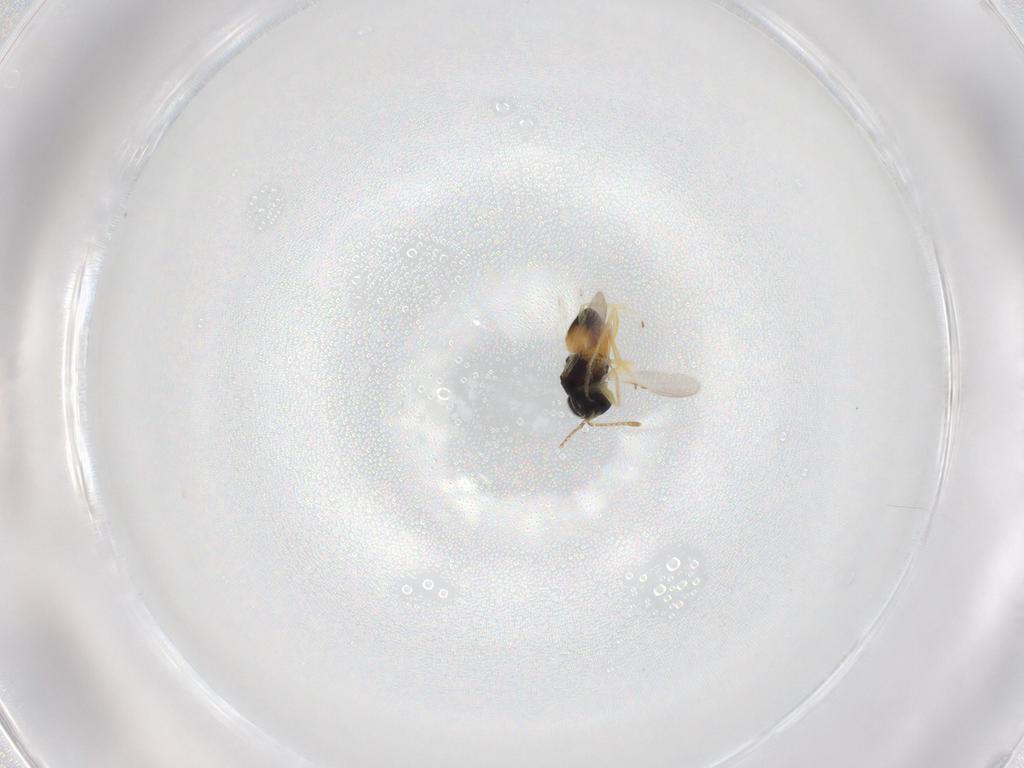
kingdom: Animalia
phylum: Arthropoda
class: Insecta
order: Hymenoptera
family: Encyrtidae
